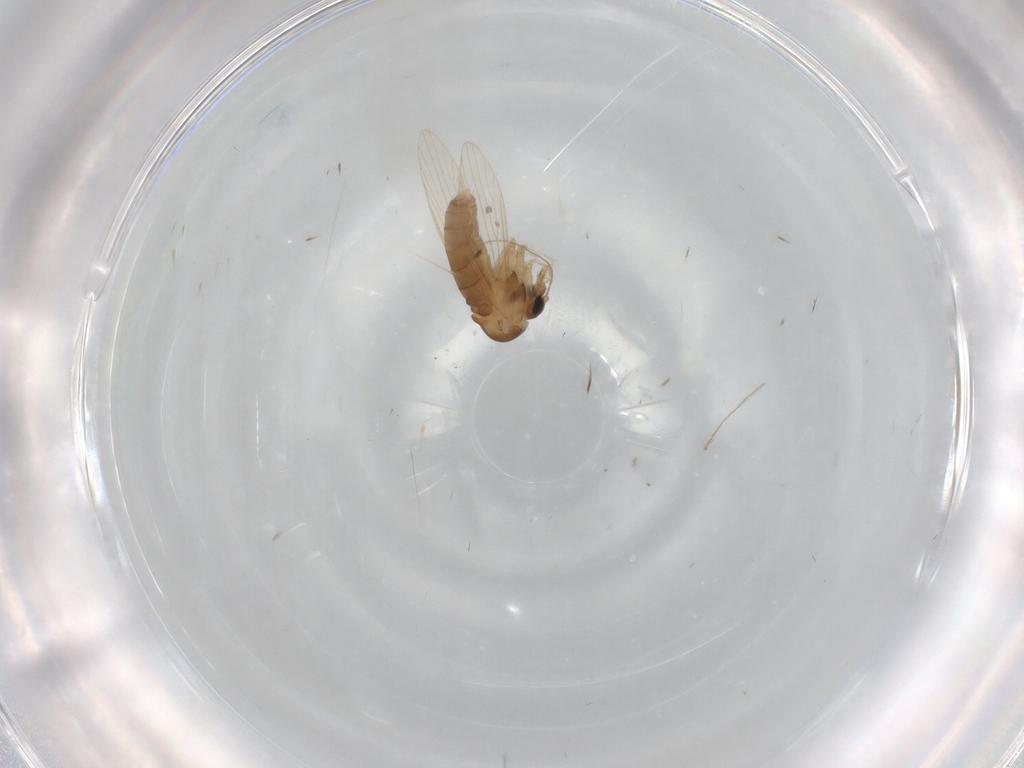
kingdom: Animalia
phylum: Arthropoda
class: Insecta
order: Diptera
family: Psychodidae
